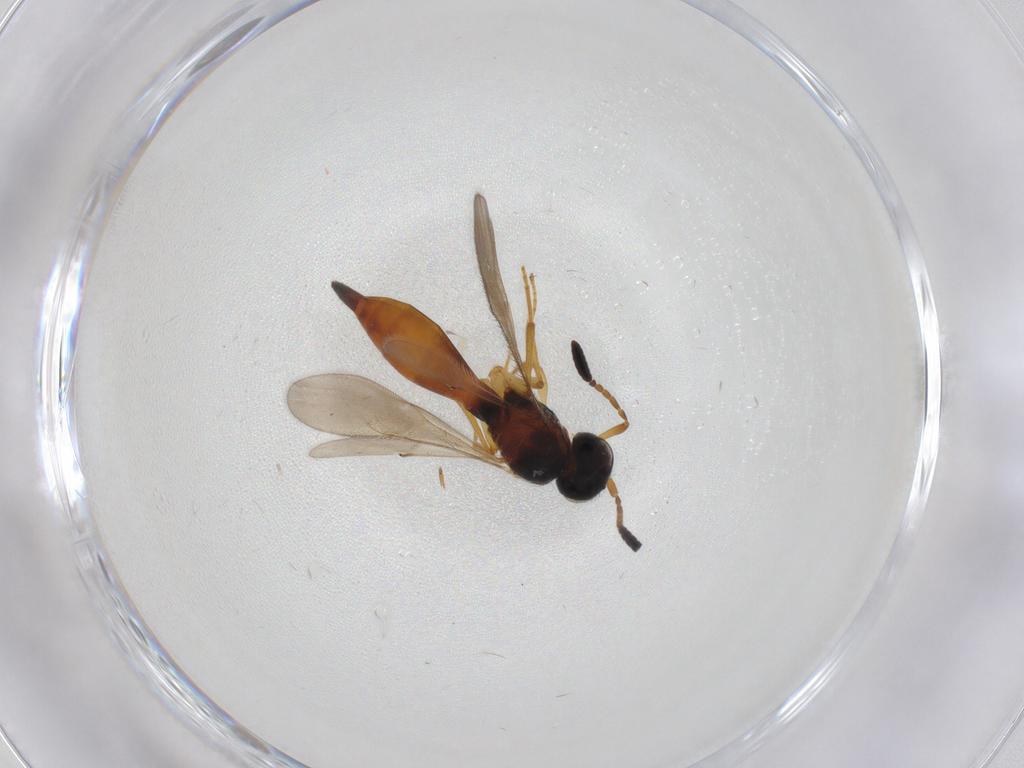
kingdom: Animalia
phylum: Arthropoda
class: Insecta
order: Hymenoptera
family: Scelionidae
